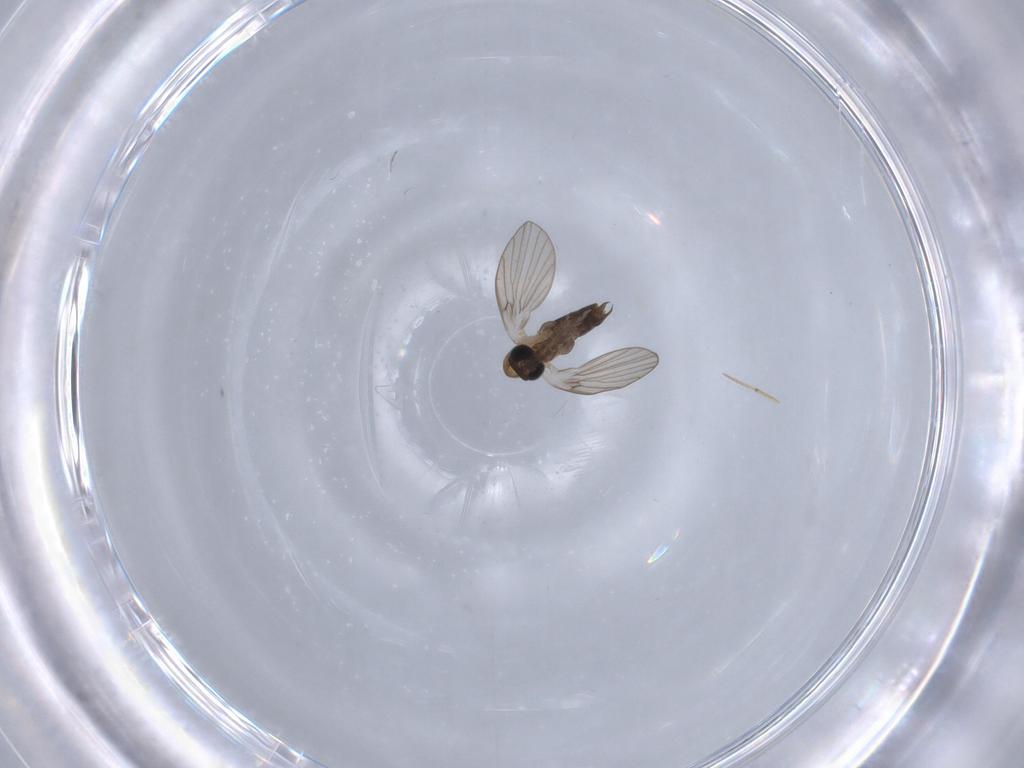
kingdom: Animalia
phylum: Arthropoda
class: Insecta
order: Diptera
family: Psychodidae
